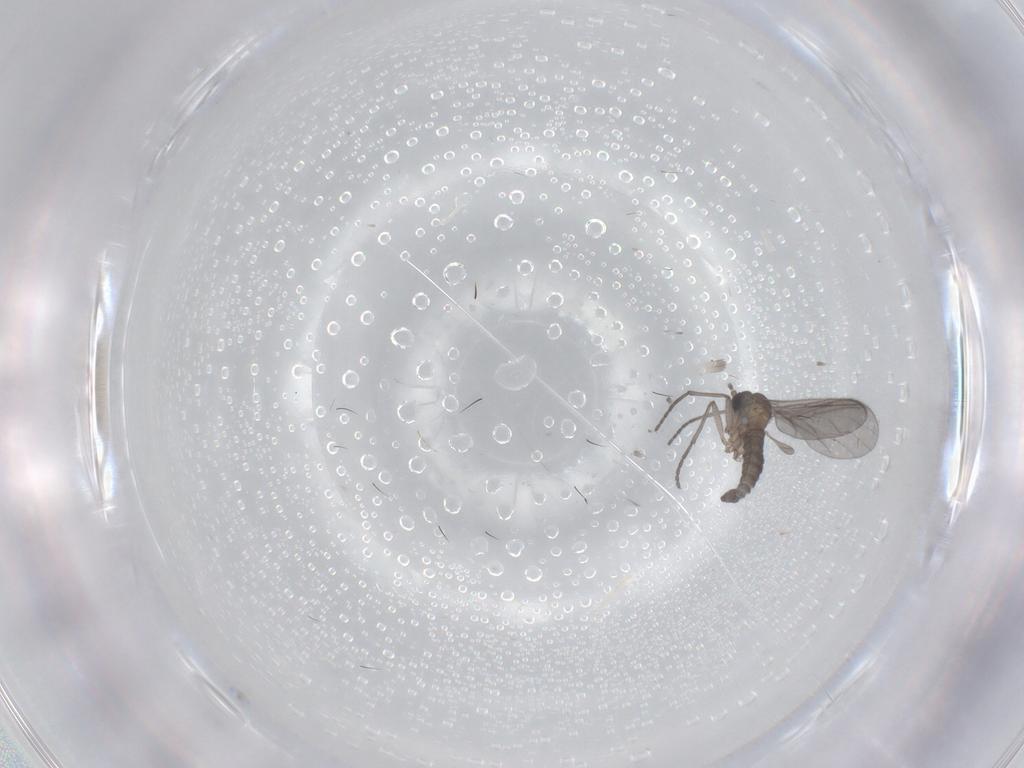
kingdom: Animalia
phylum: Arthropoda
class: Insecta
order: Diptera
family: Sciaridae
